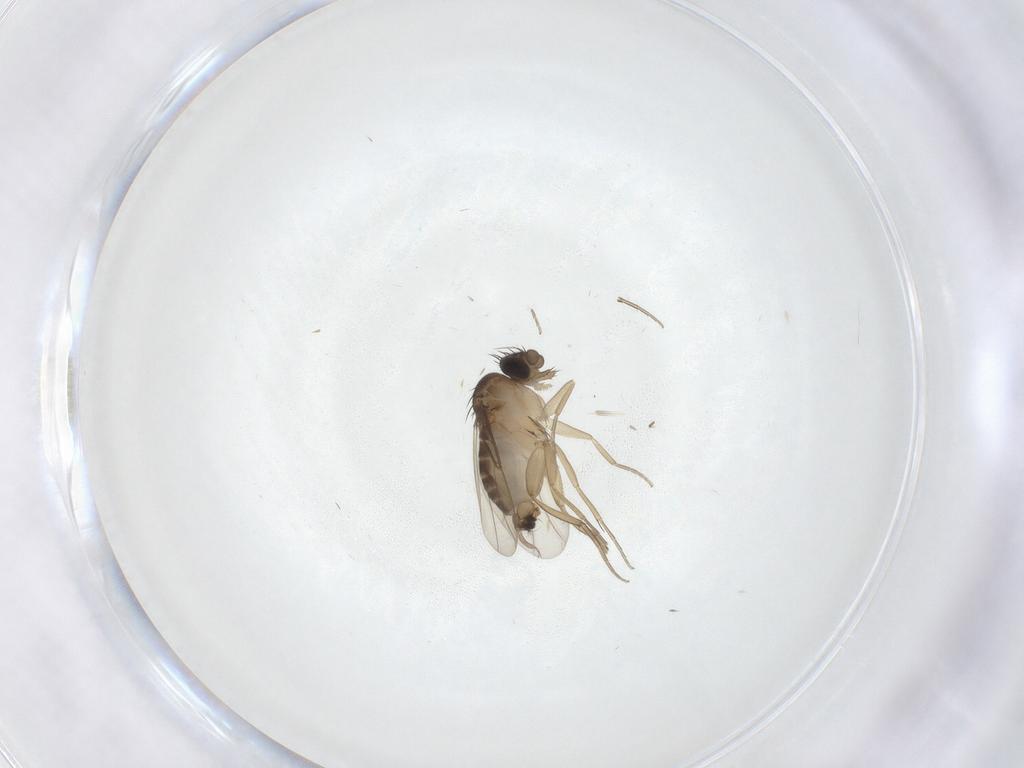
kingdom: Animalia
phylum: Arthropoda
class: Insecta
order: Diptera
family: Phoridae
